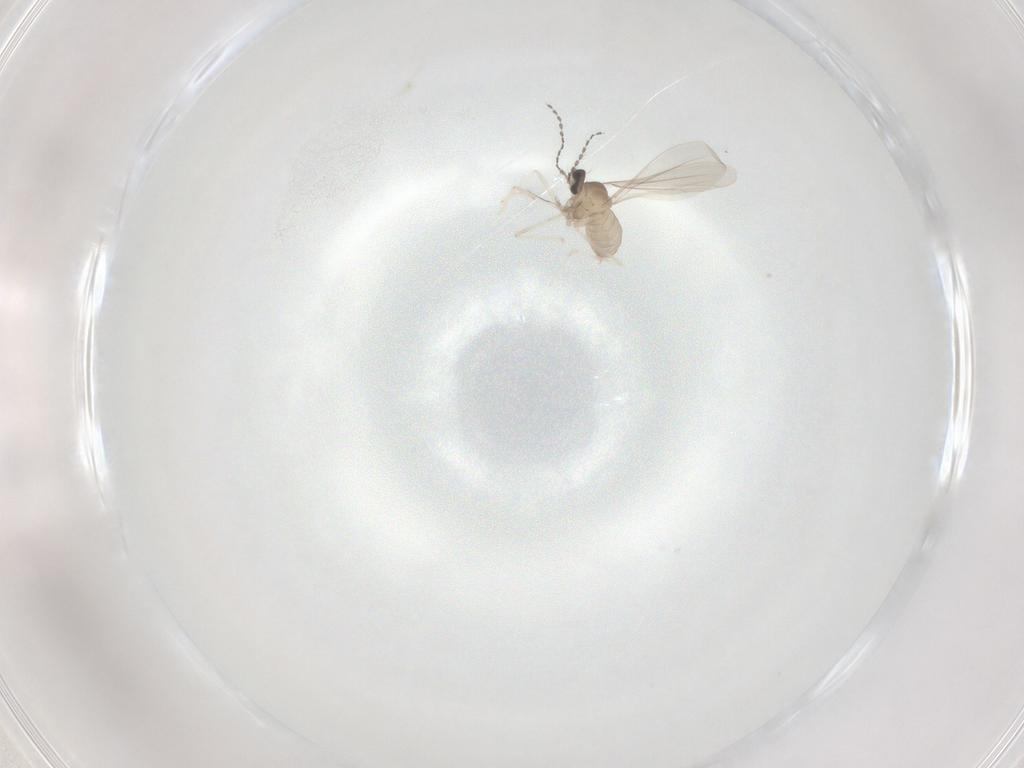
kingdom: Animalia
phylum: Arthropoda
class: Insecta
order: Diptera
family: Cecidomyiidae
